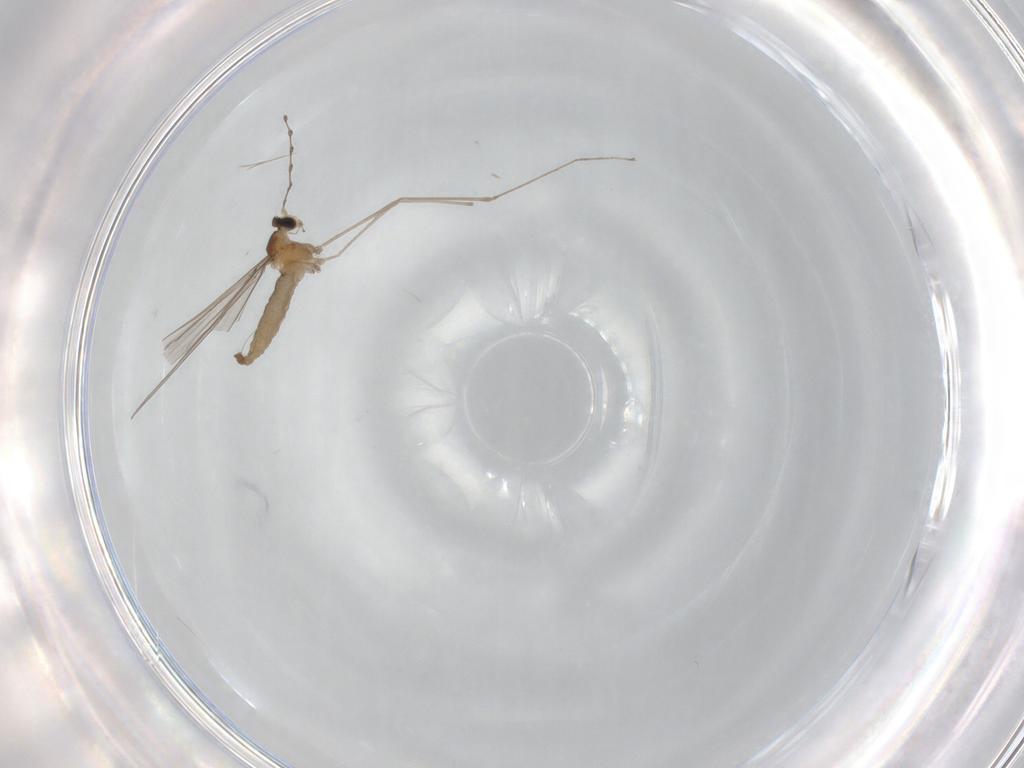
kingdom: Animalia
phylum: Arthropoda
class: Insecta
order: Diptera
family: Cecidomyiidae
